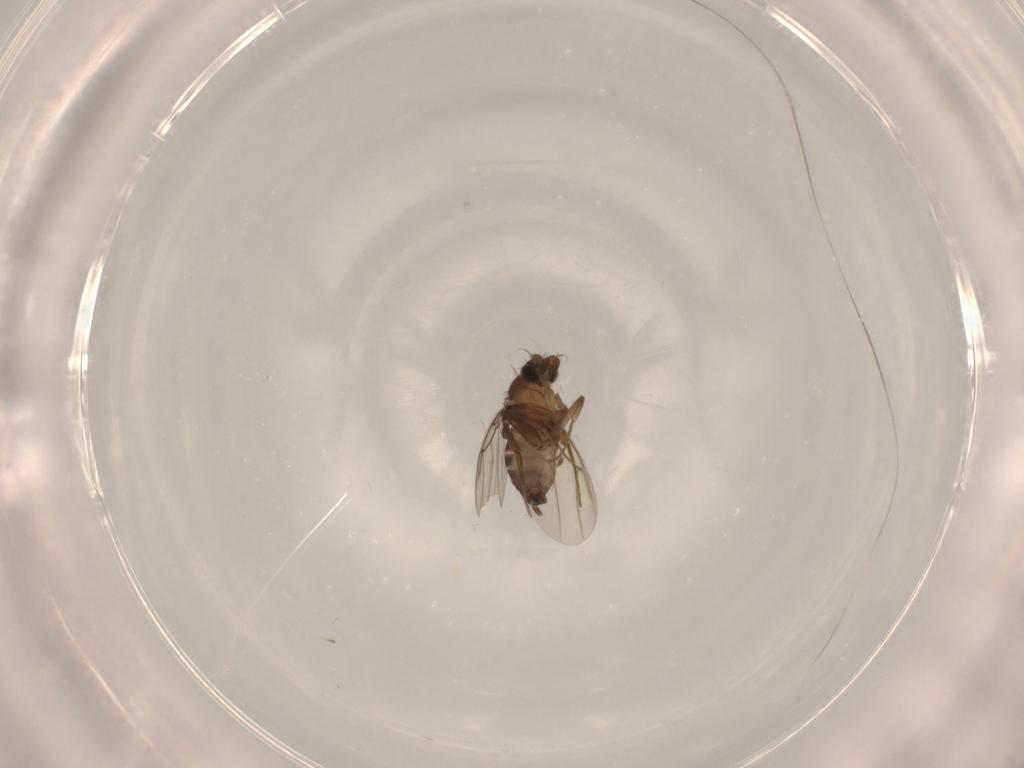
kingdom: Animalia
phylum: Arthropoda
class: Insecta
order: Diptera
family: Phoridae
